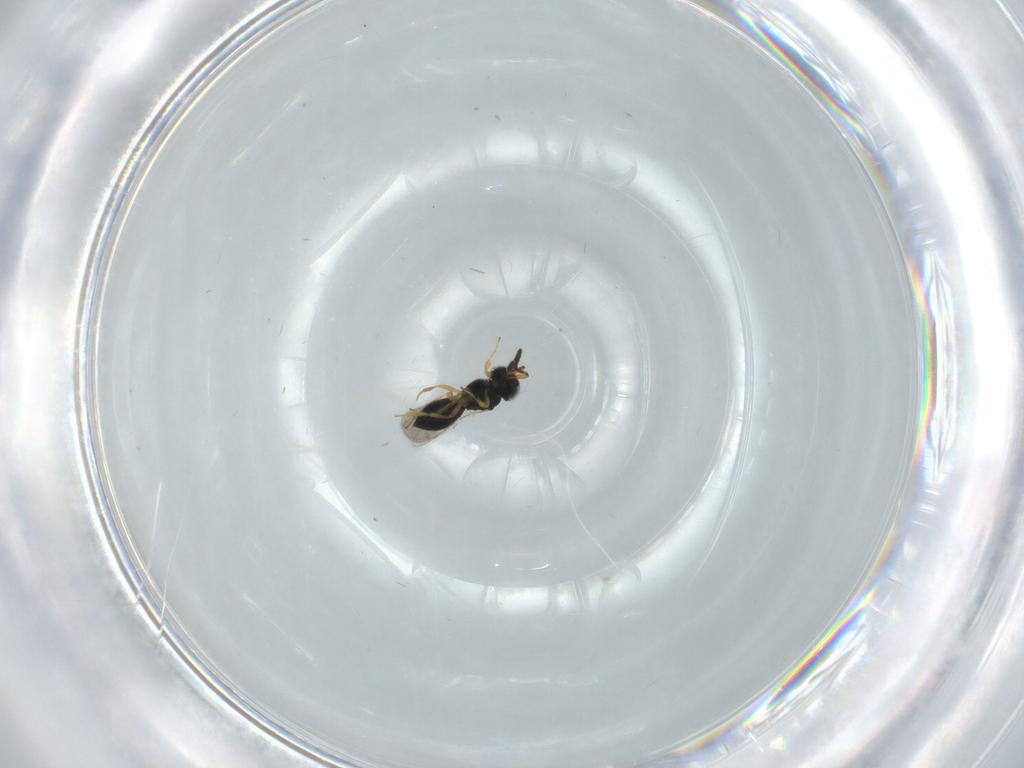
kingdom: Animalia
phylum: Arthropoda
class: Insecta
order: Hymenoptera
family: Scelionidae
